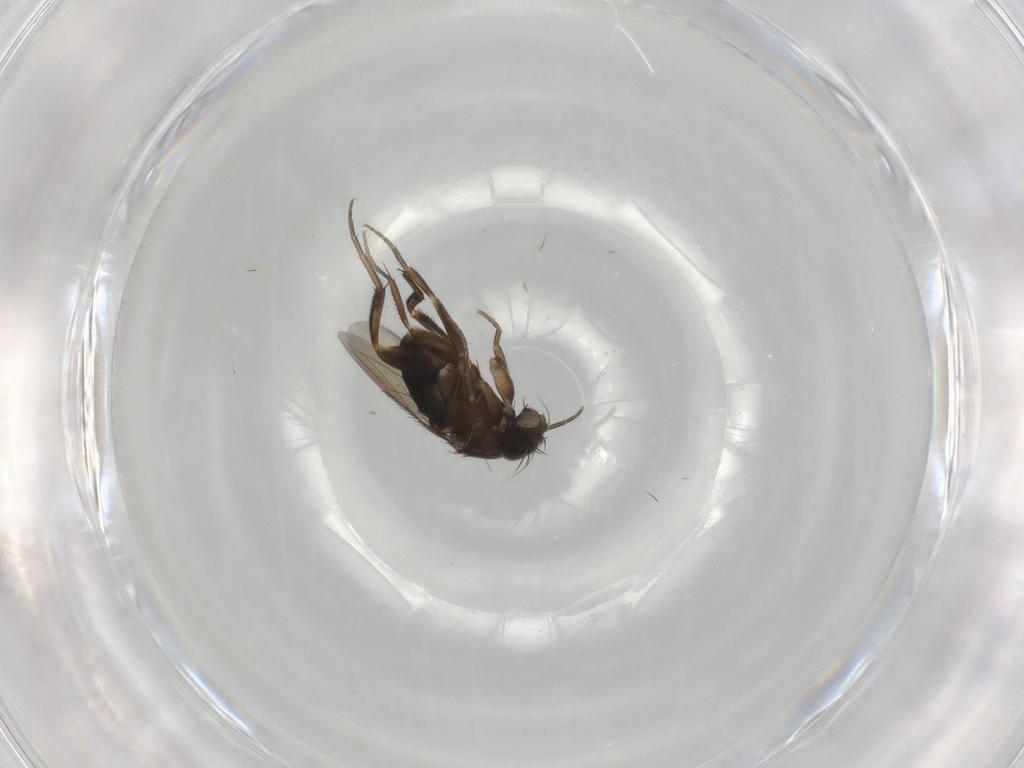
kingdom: Animalia
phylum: Arthropoda
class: Insecta
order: Diptera
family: Phoridae
